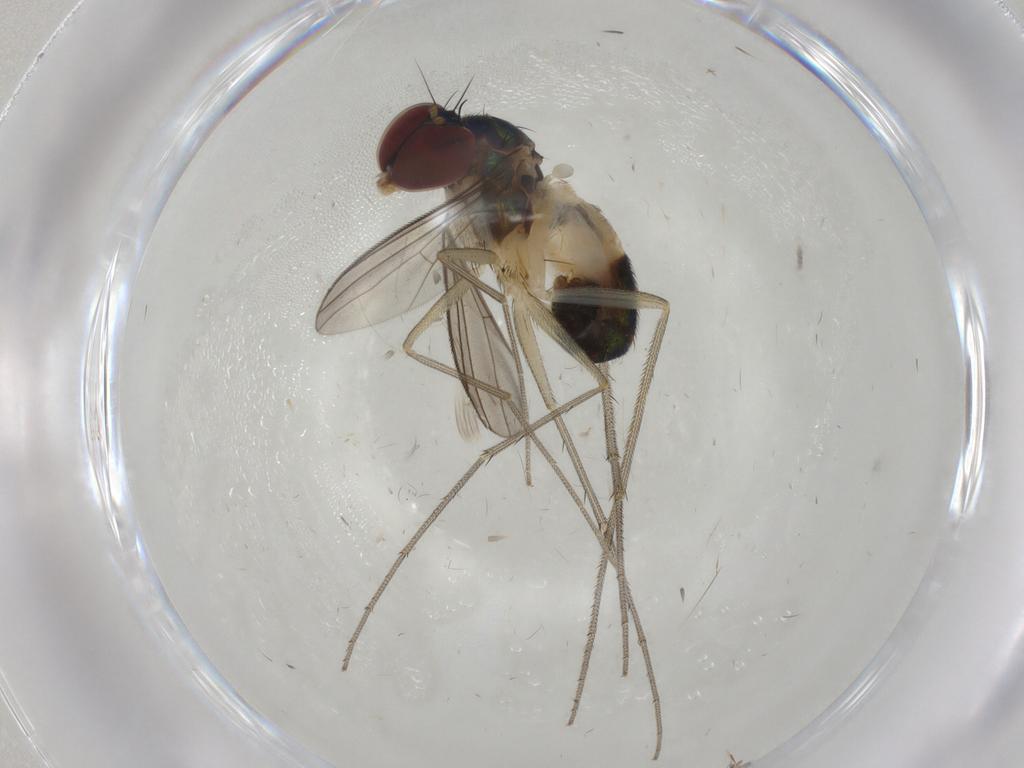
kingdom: Animalia
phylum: Arthropoda
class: Insecta
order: Diptera
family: Dolichopodidae
